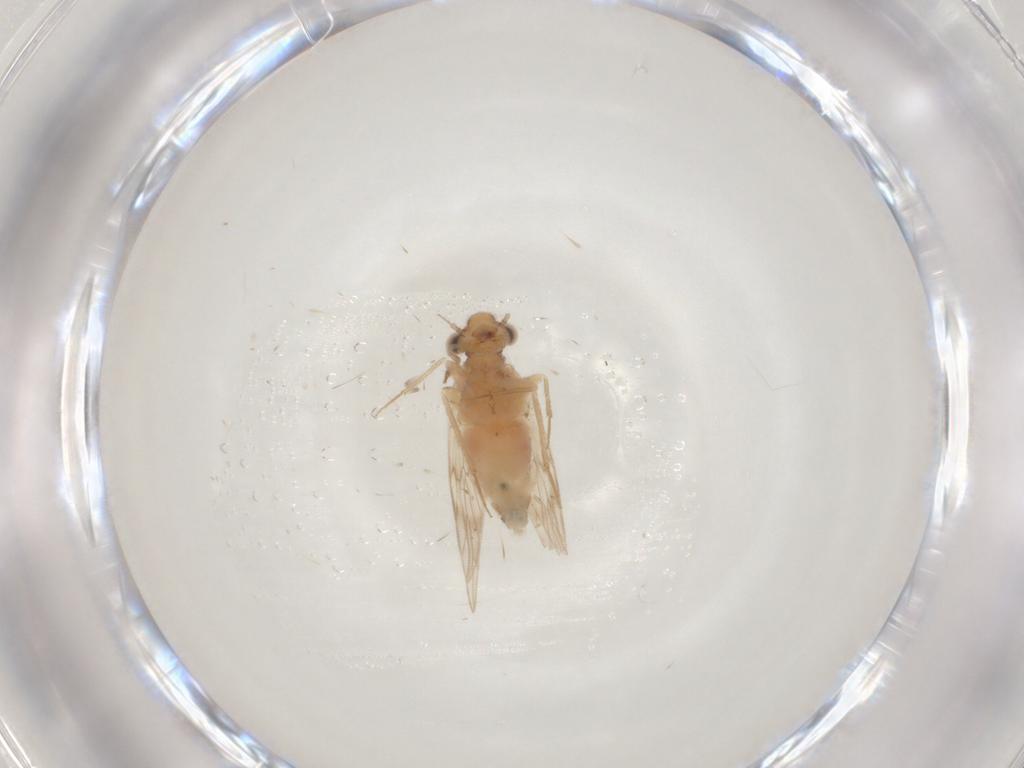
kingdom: Animalia
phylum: Arthropoda
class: Insecta
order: Psocodea
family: Lepidopsocidae
